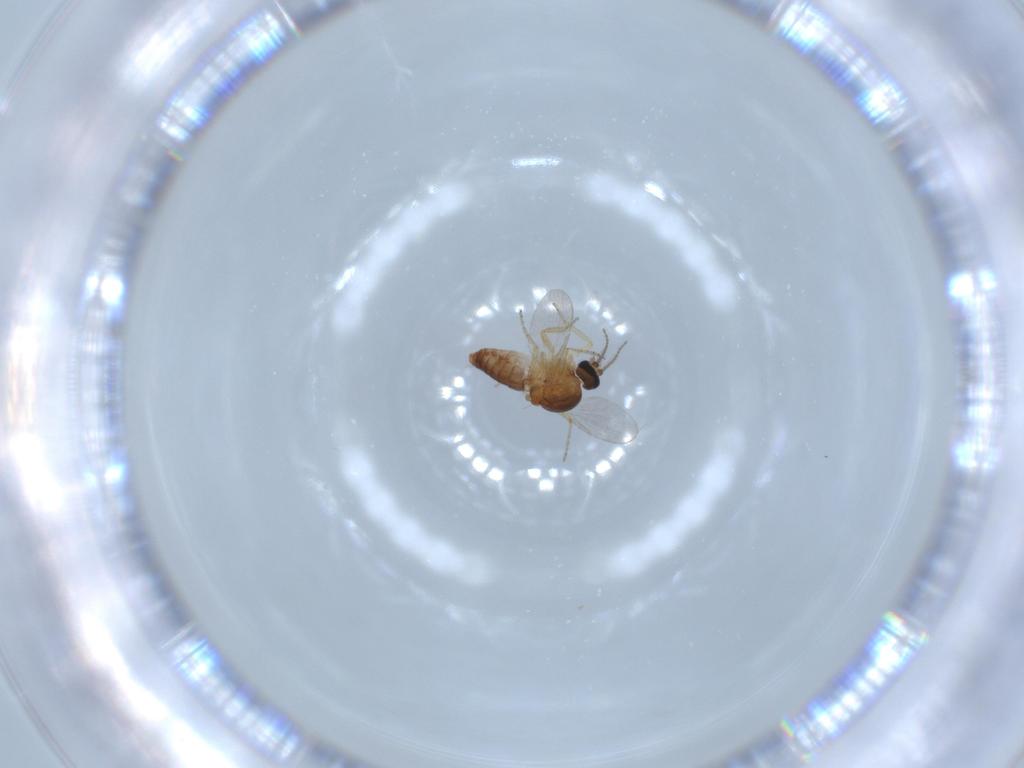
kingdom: Animalia
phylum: Arthropoda
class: Insecta
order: Diptera
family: Ceratopogonidae
